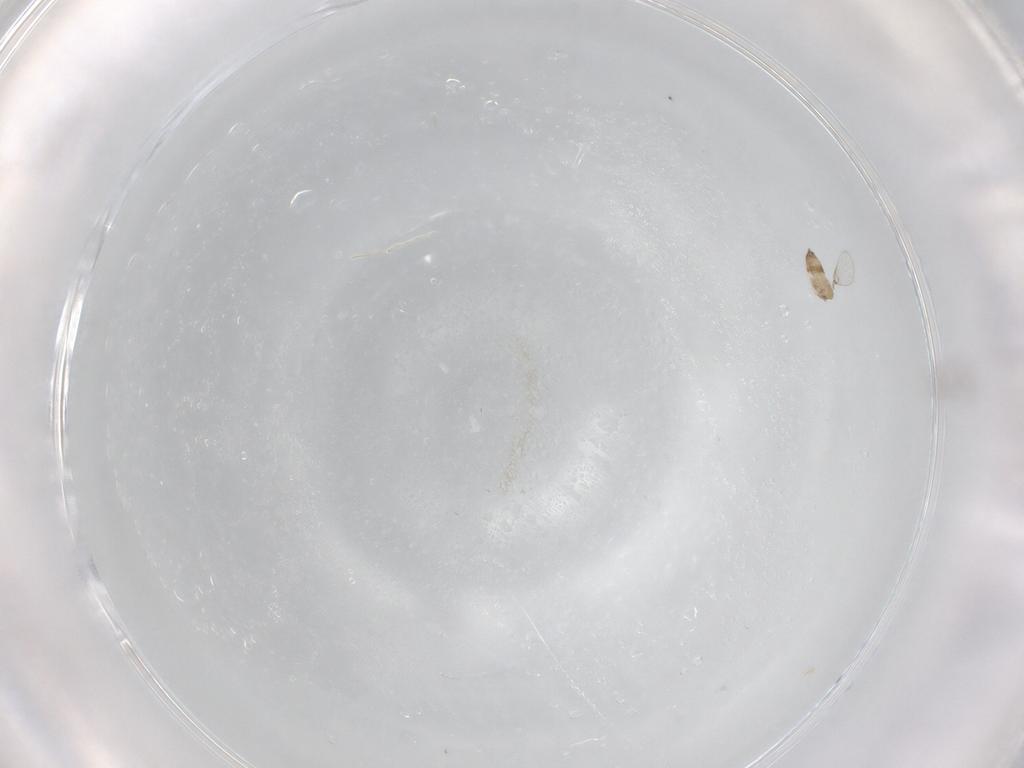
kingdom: Animalia
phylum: Arthropoda
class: Insecta
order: Hymenoptera
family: Trichogrammatidae
